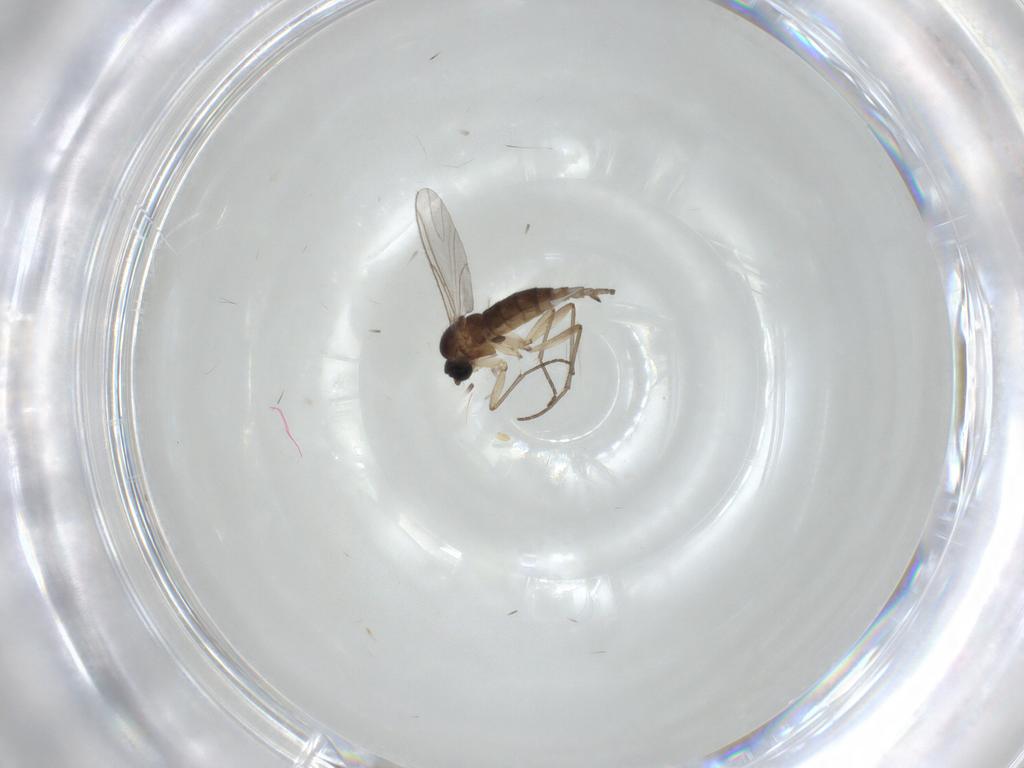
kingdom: Animalia
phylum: Arthropoda
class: Insecta
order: Diptera
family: Sciaridae
